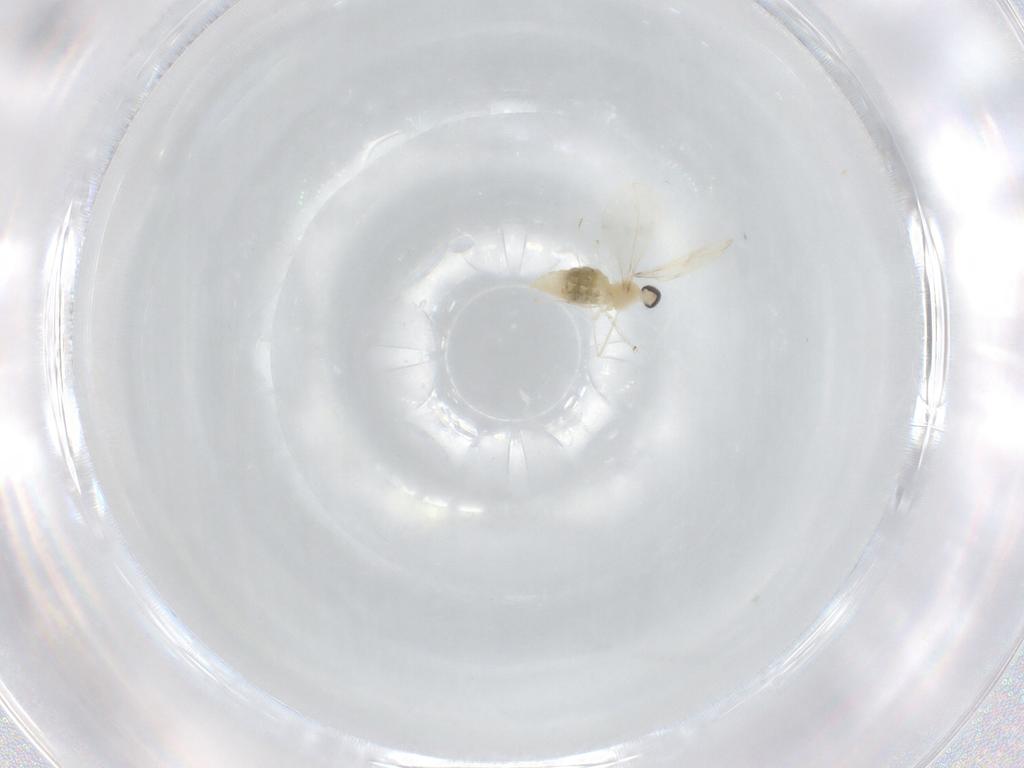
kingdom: Animalia
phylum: Arthropoda
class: Insecta
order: Diptera
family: Cecidomyiidae
